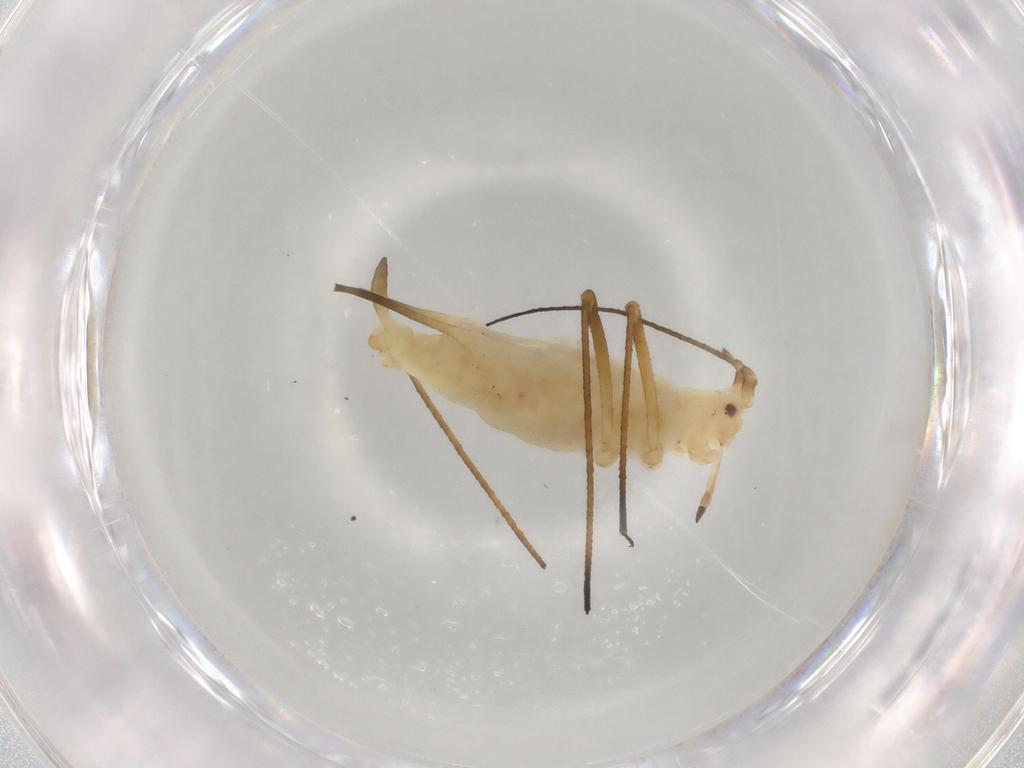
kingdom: Animalia
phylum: Arthropoda
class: Insecta
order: Hemiptera
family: Aphididae
